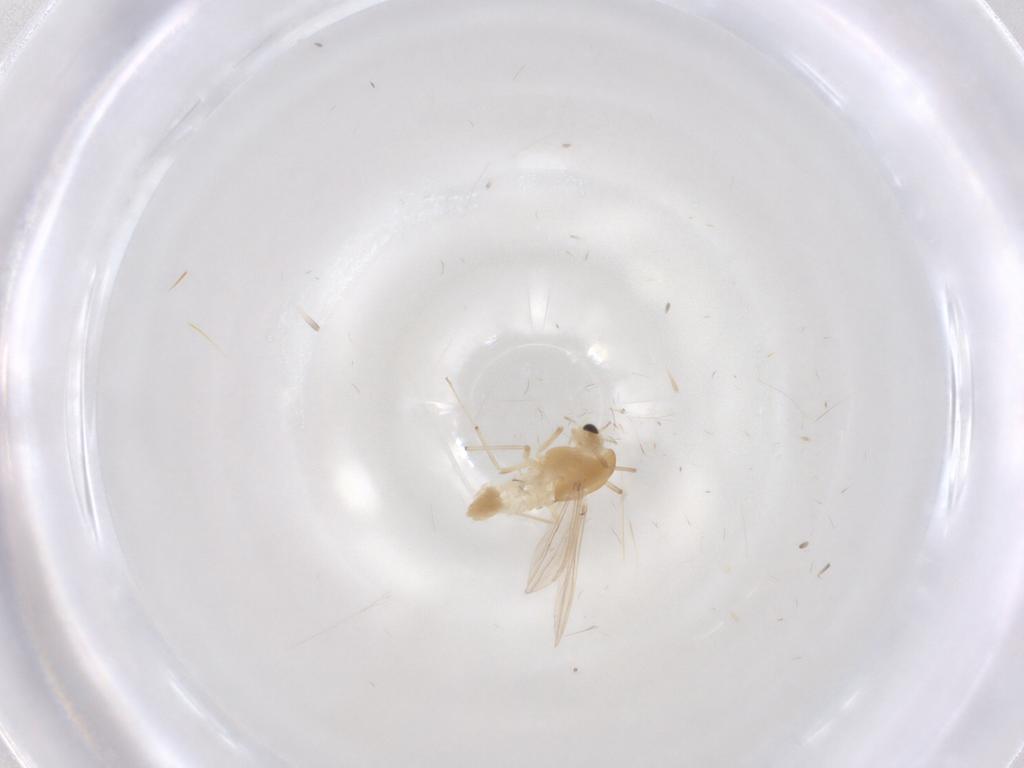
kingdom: Animalia
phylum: Arthropoda
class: Insecta
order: Diptera
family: Chironomidae
